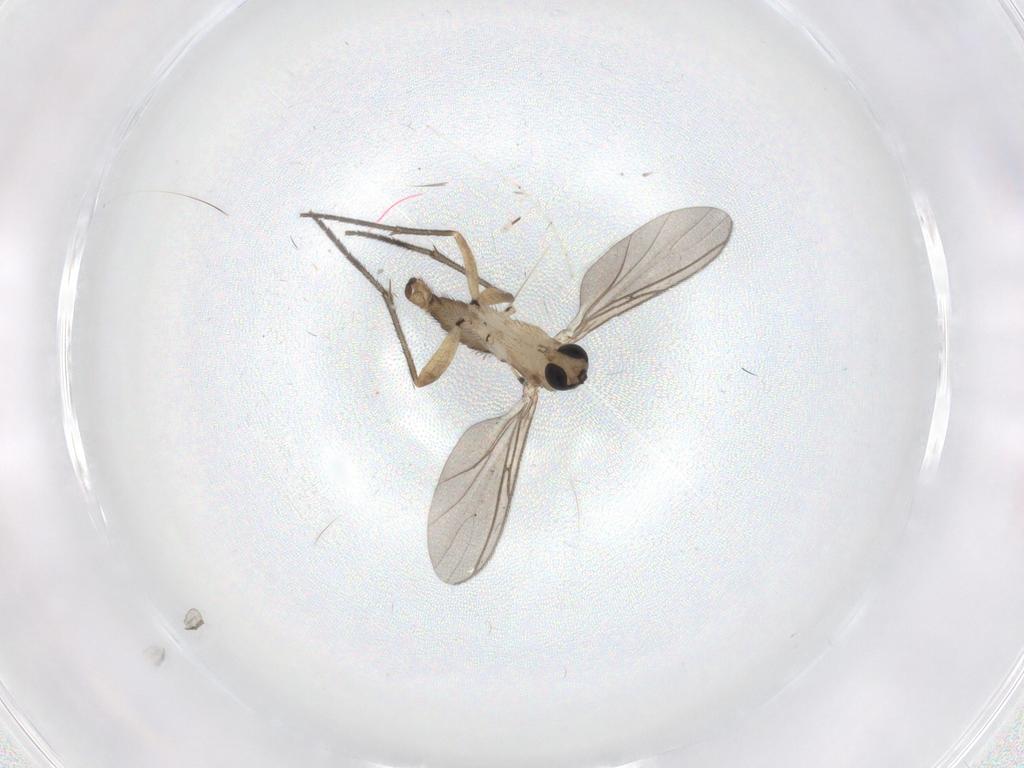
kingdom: Animalia
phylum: Arthropoda
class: Insecta
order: Diptera
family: Sciaridae
